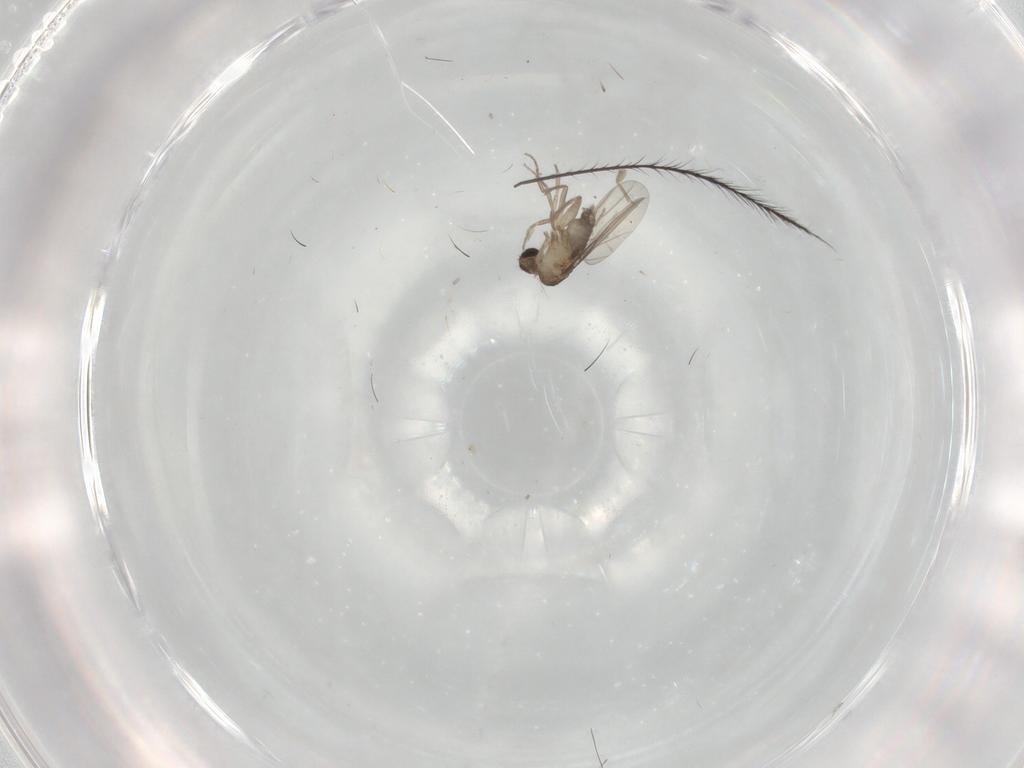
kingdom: Animalia
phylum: Arthropoda
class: Insecta
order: Diptera
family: Phoridae
